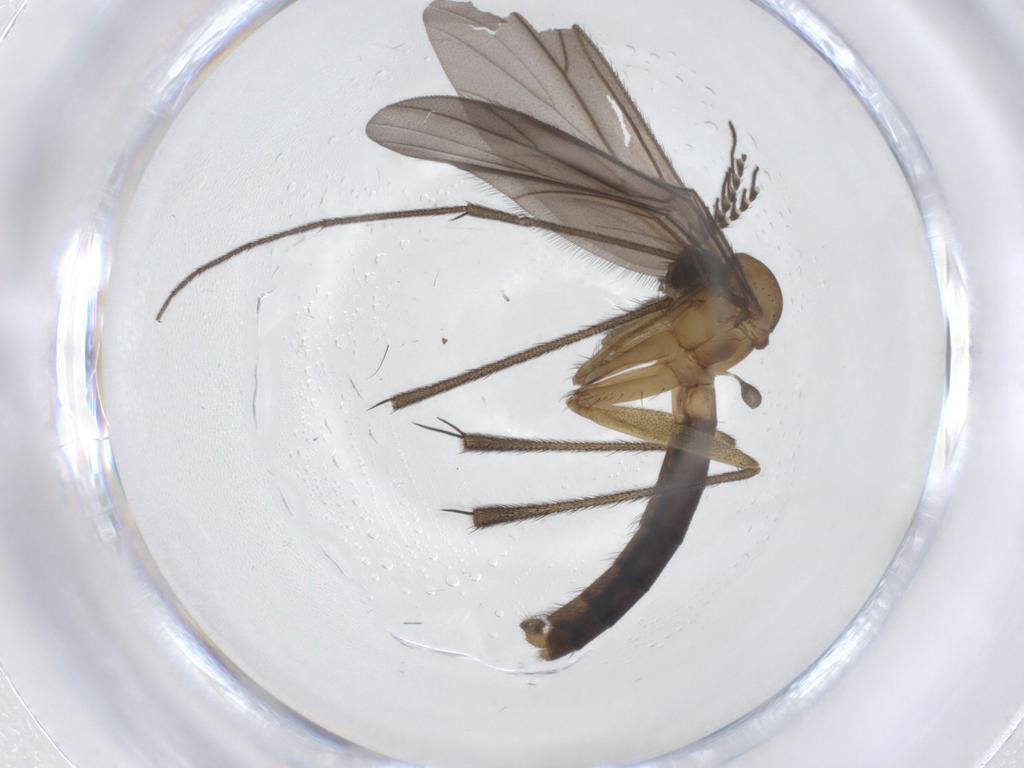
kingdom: Animalia
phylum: Arthropoda
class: Insecta
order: Diptera
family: Ditomyiidae
